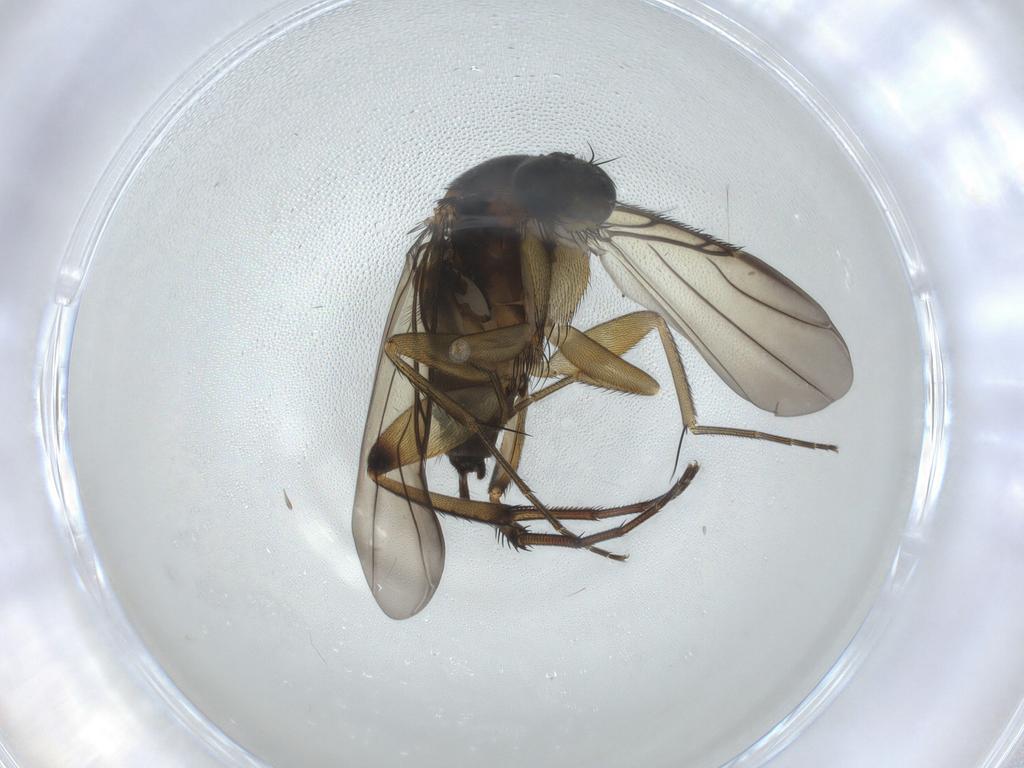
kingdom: Animalia
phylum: Arthropoda
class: Insecta
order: Diptera
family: Phoridae
